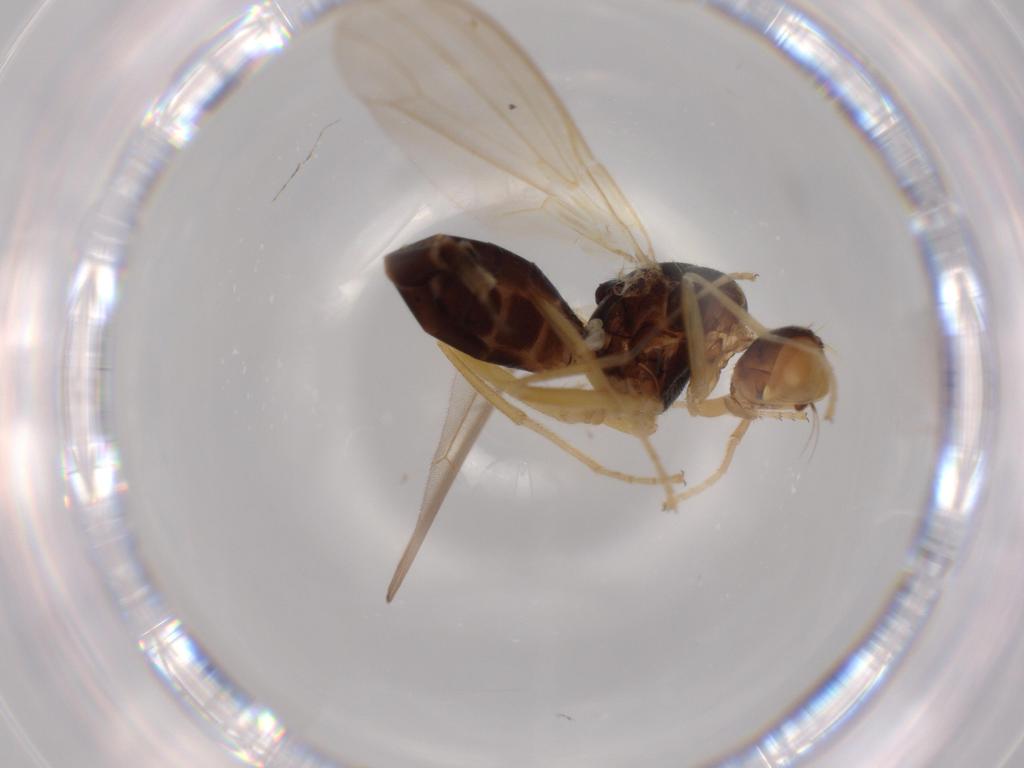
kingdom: Animalia
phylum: Arthropoda
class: Insecta
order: Diptera
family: Psilidae
